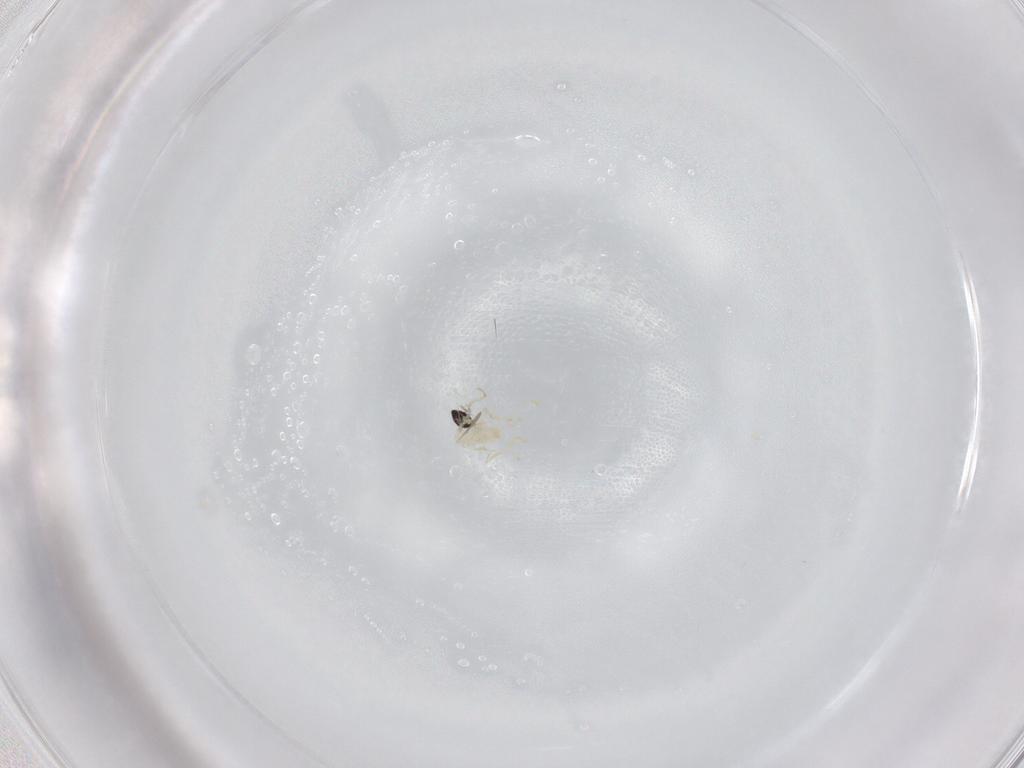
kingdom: Animalia
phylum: Arthropoda
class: Insecta
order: Diptera
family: Cecidomyiidae
